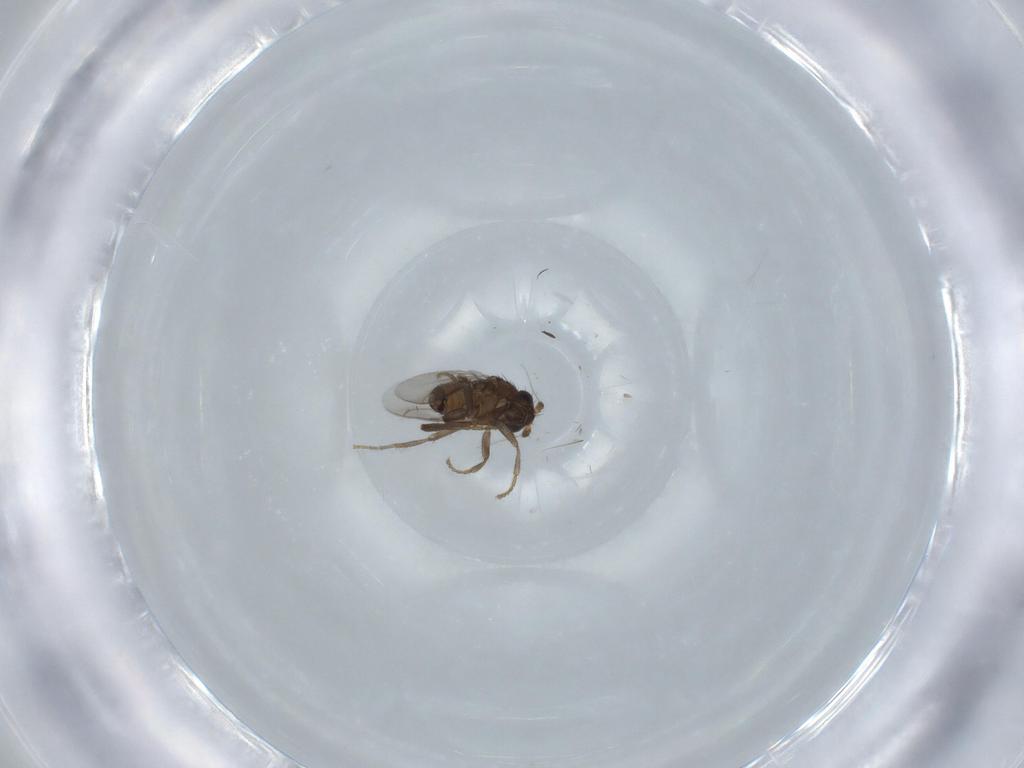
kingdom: Animalia
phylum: Arthropoda
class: Insecta
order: Diptera
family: Sphaeroceridae
